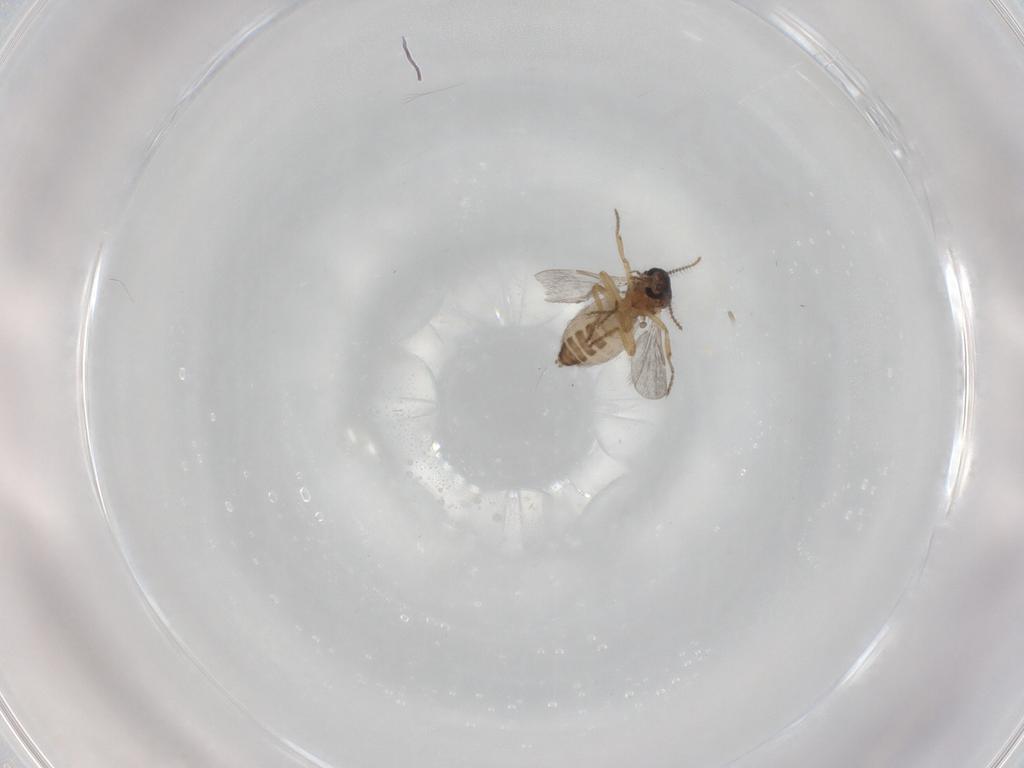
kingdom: Animalia
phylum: Arthropoda
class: Insecta
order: Diptera
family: Ceratopogonidae
